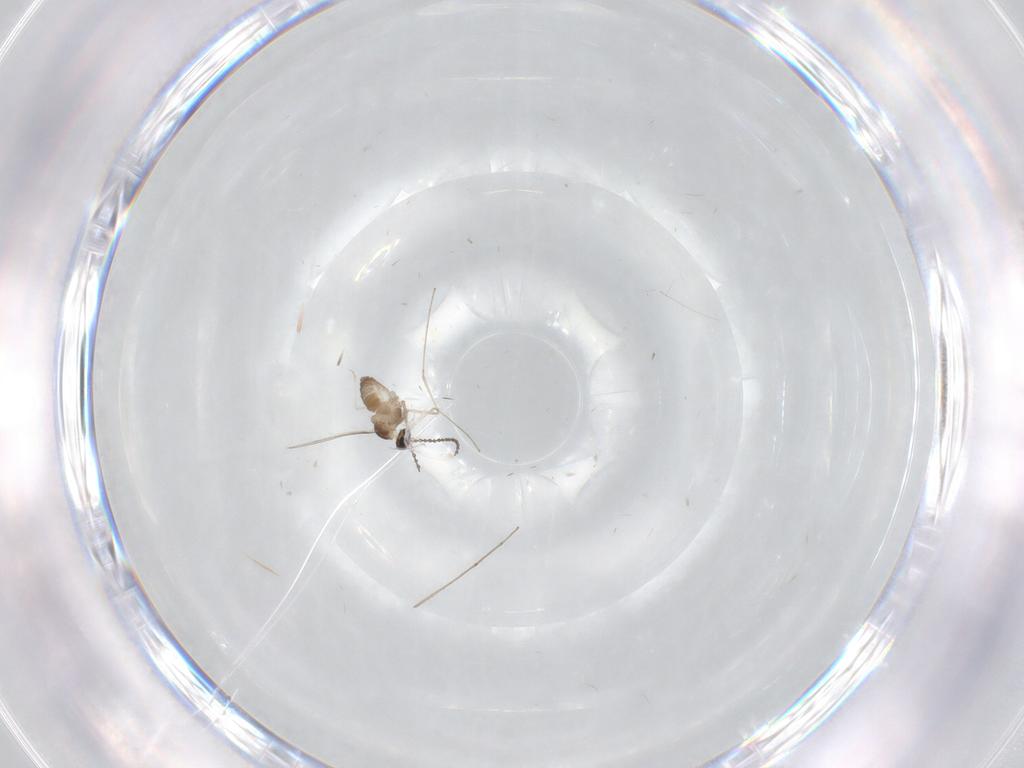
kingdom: Animalia
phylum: Arthropoda
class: Insecta
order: Diptera
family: Cecidomyiidae
